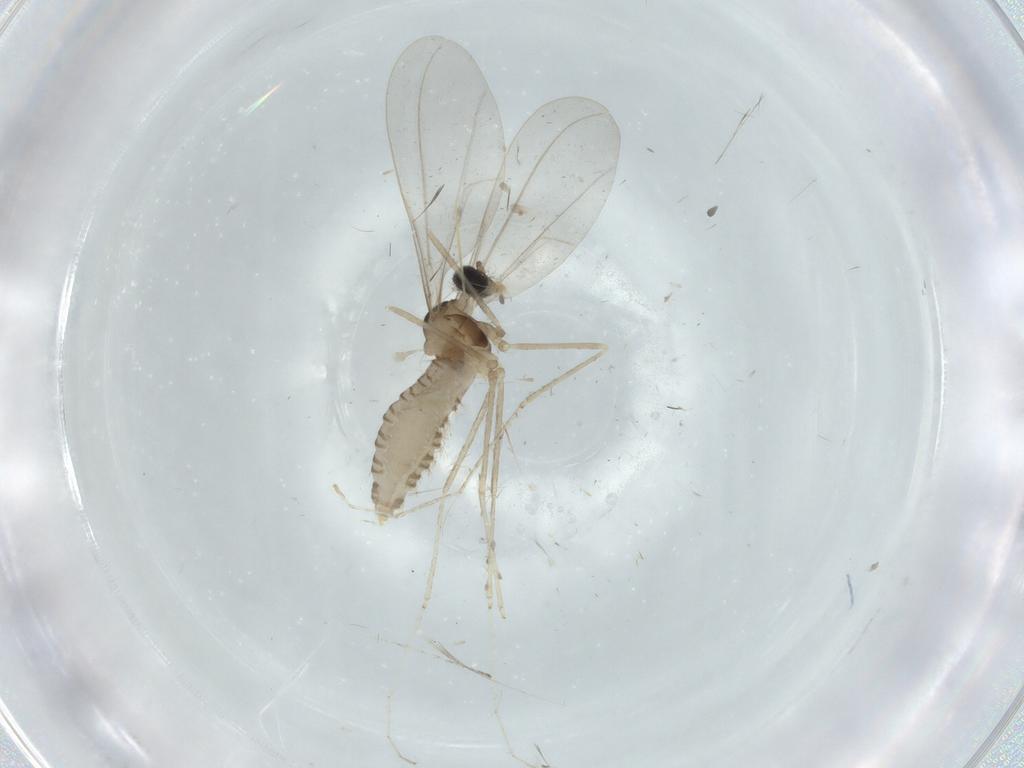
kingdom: Animalia
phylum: Arthropoda
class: Insecta
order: Diptera
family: Cecidomyiidae
